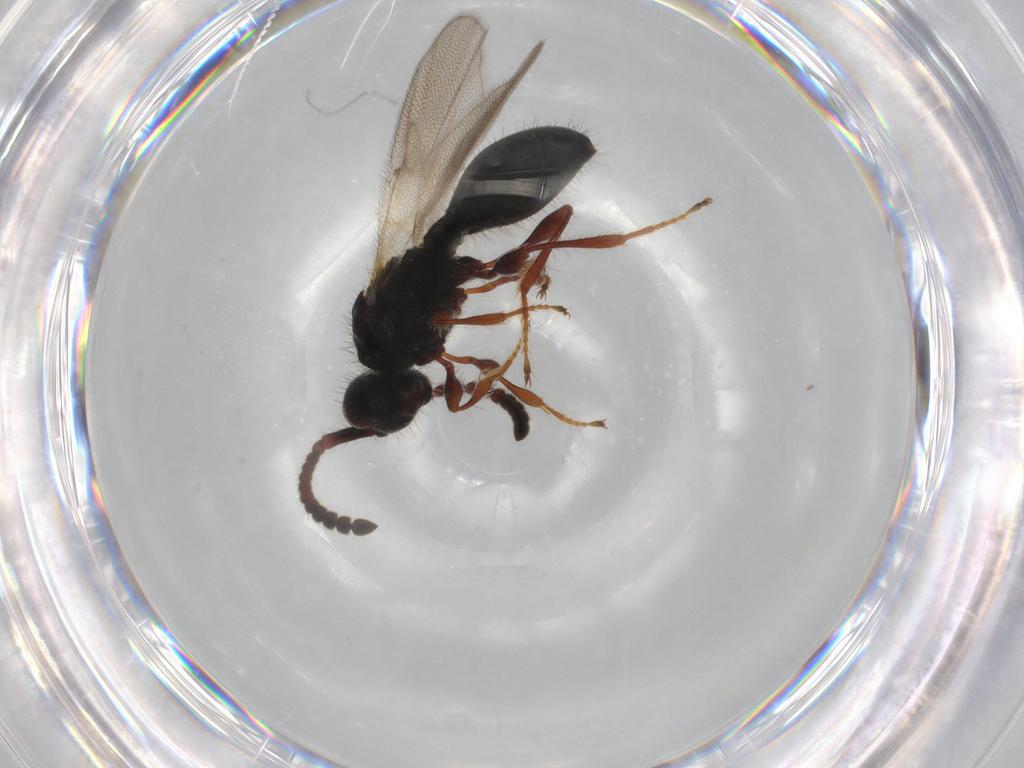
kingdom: Animalia
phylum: Arthropoda
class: Insecta
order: Hymenoptera
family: Diapriidae
